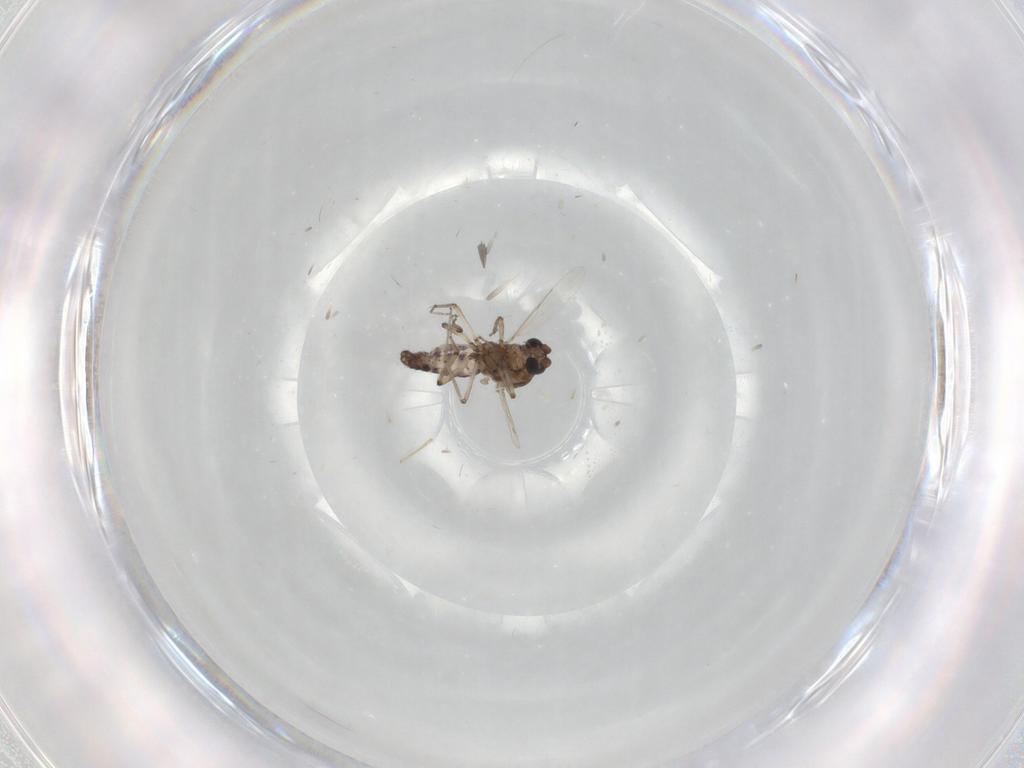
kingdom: Animalia
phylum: Arthropoda
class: Insecta
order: Diptera
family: Ceratopogonidae
